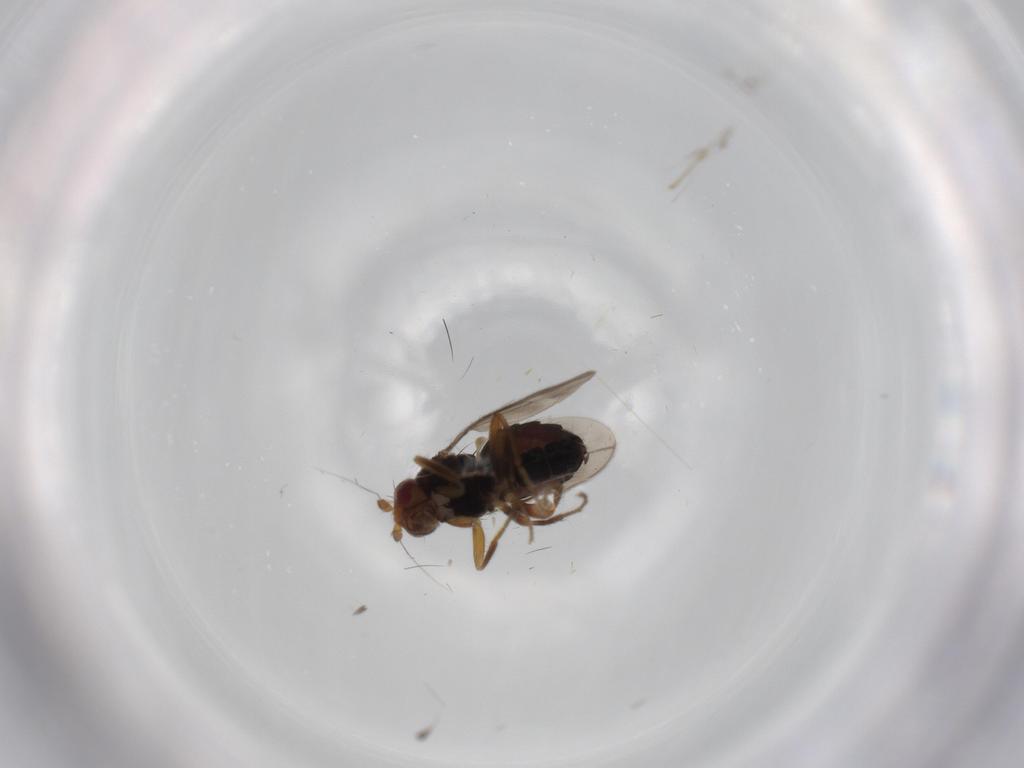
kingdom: Animalia
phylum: Arthropoda
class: Insecta
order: Diptera
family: Sphaeroceridae
